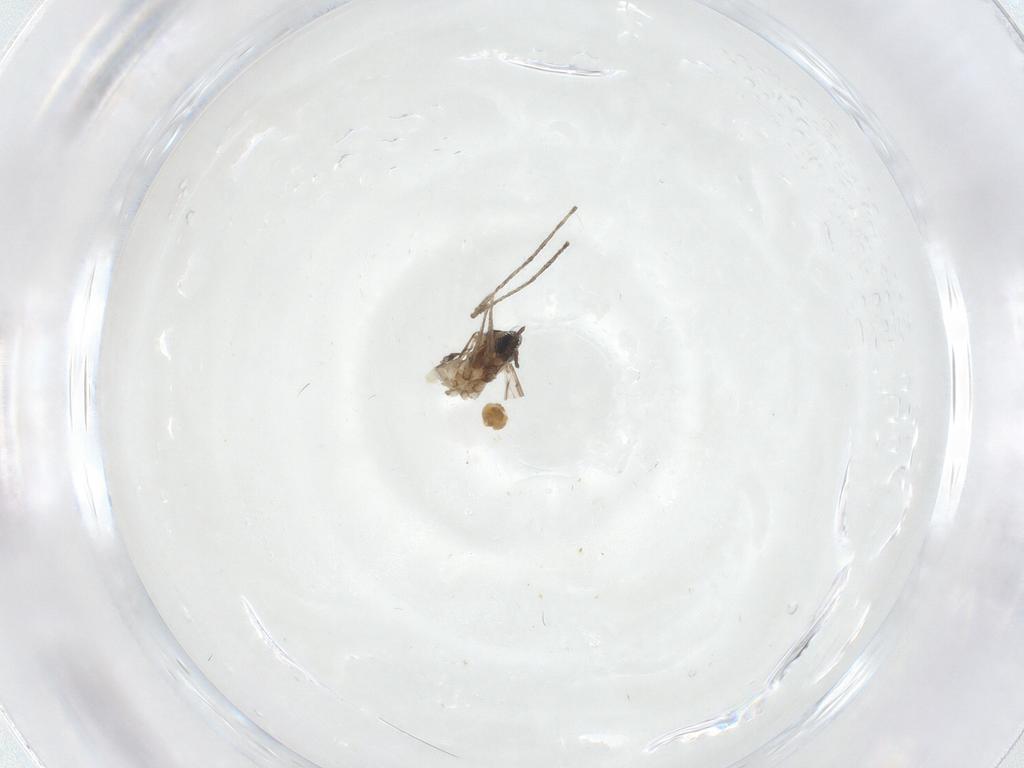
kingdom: Animalia
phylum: Arthropoda
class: Insecta
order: Diptera
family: Cecidomyiidae
